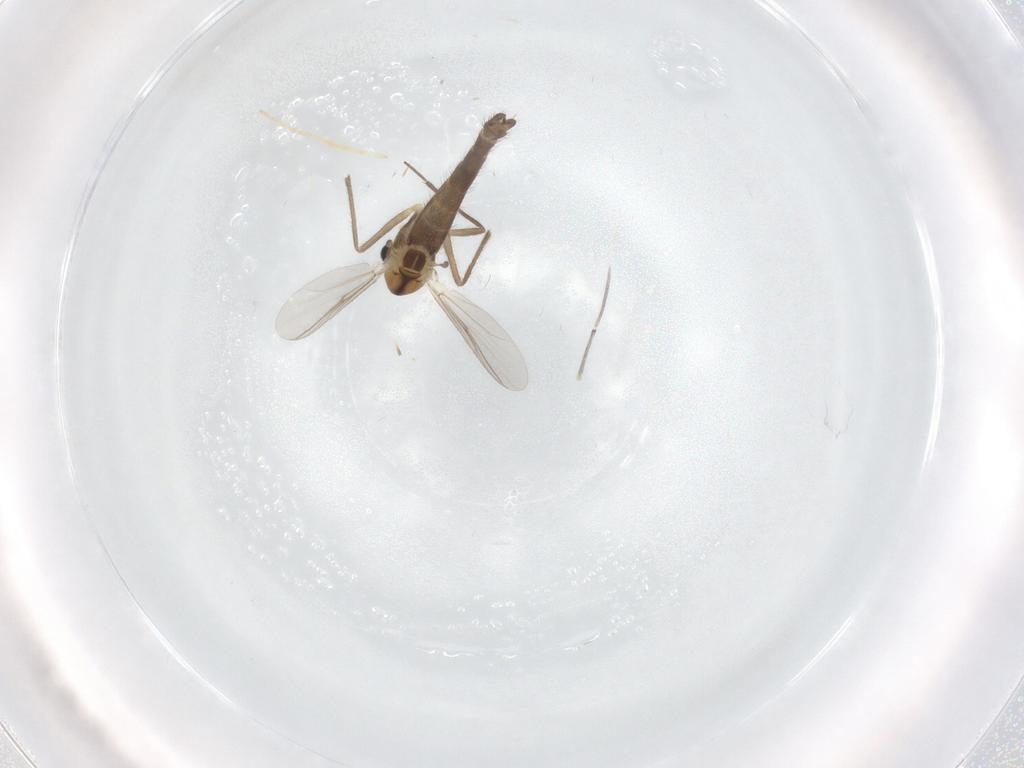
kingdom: Animalia
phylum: Arthropoda
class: Insecta
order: Diptera
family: Chironomidae
